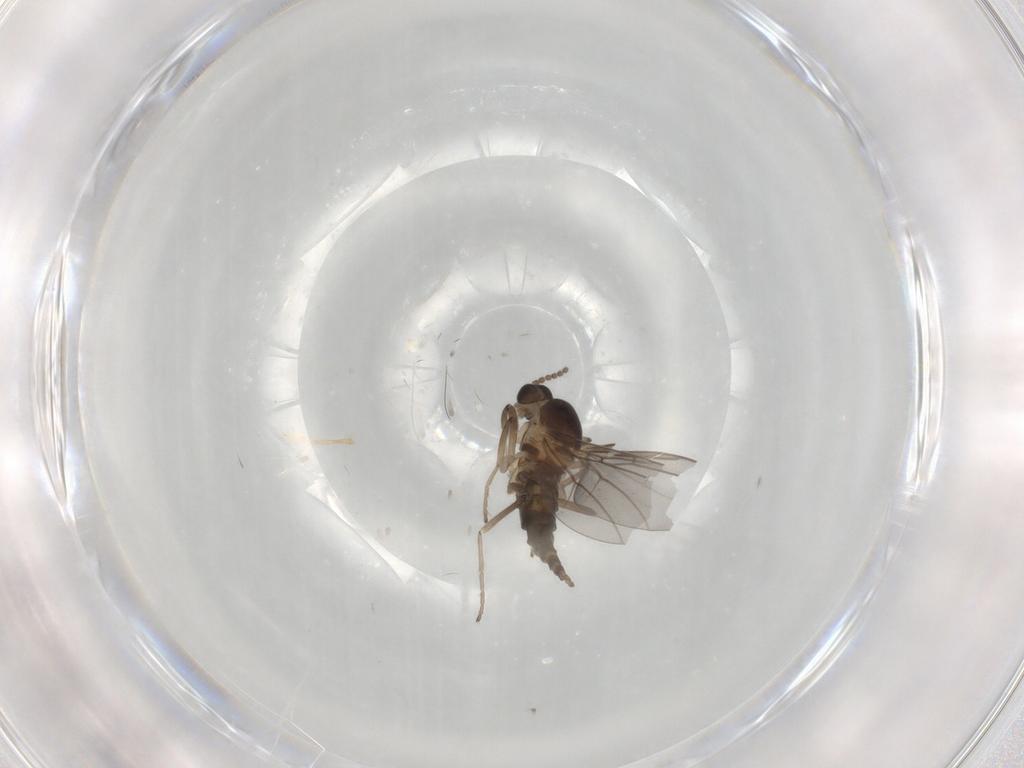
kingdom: Animalia
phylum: Arthropoda
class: Insecta
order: Diptera
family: Cecidomyiidae
